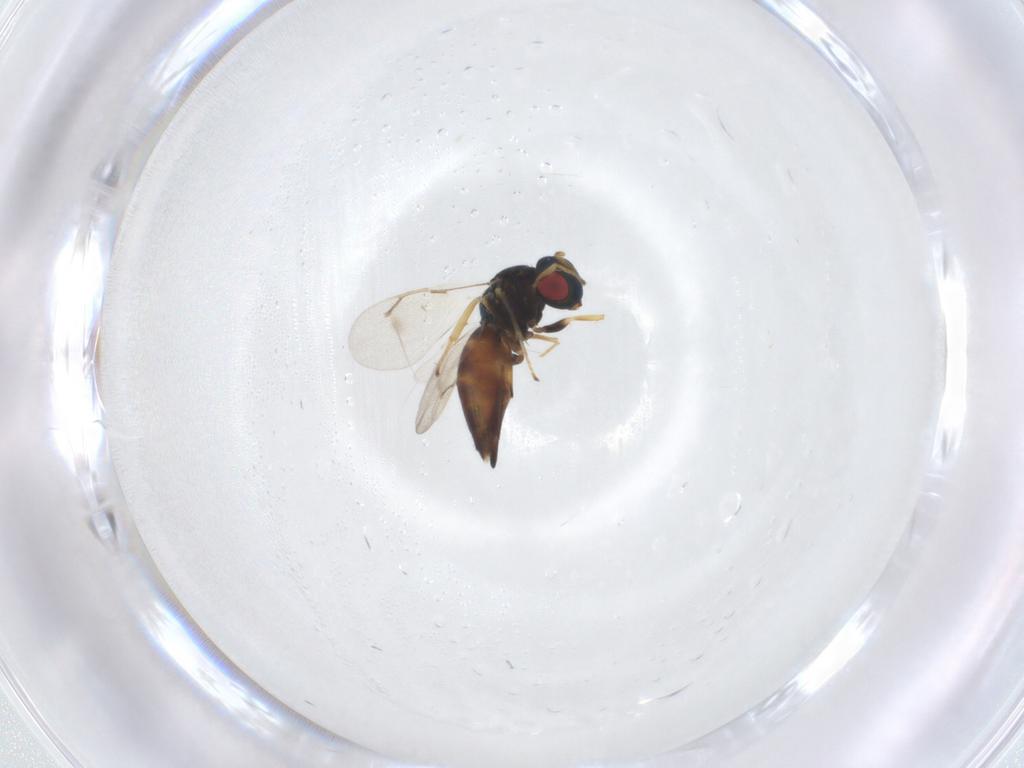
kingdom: Animalia
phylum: Arthropoda
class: Insecta
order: Hymenoptera
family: Pteromalidae
